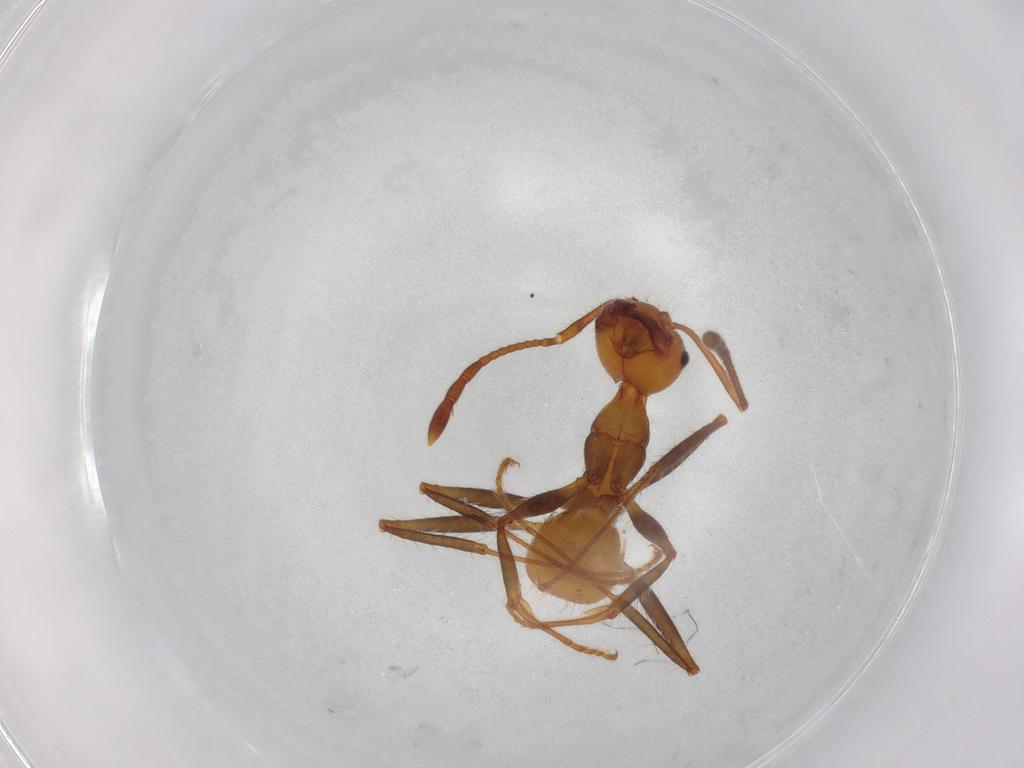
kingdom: Animalia
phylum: Arthropoda
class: Insecta
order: Hymenoptera
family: Formicidae
